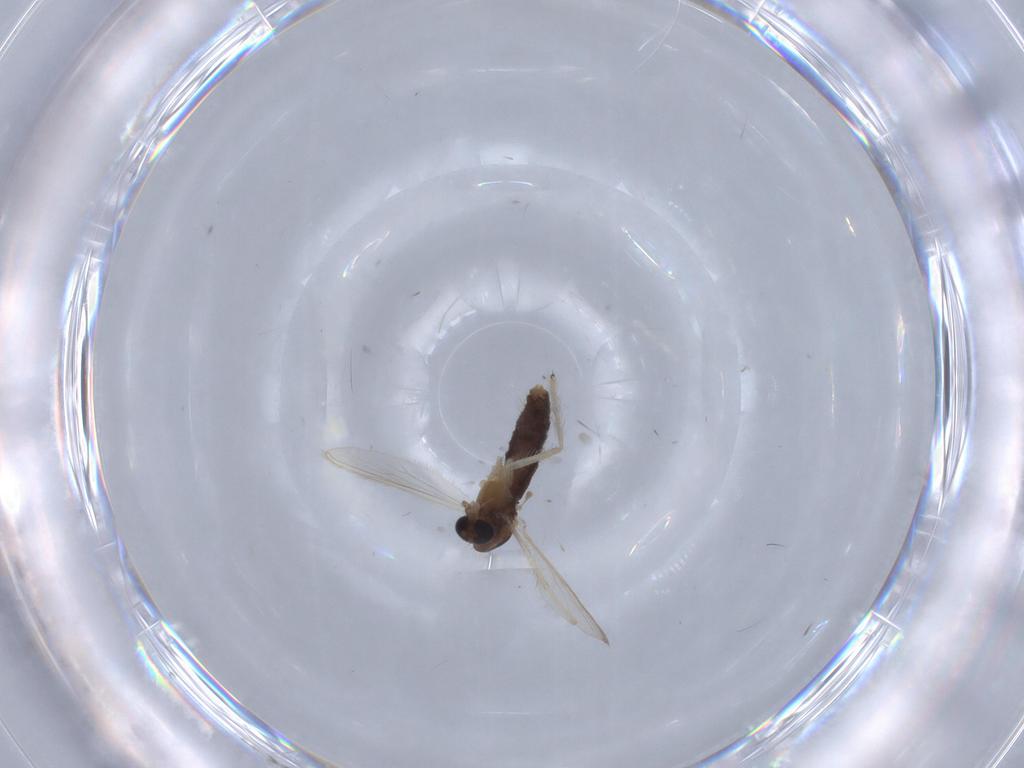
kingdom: Animalia
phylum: Arthropoda
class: Insecta
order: Diptera
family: Chironomidae
